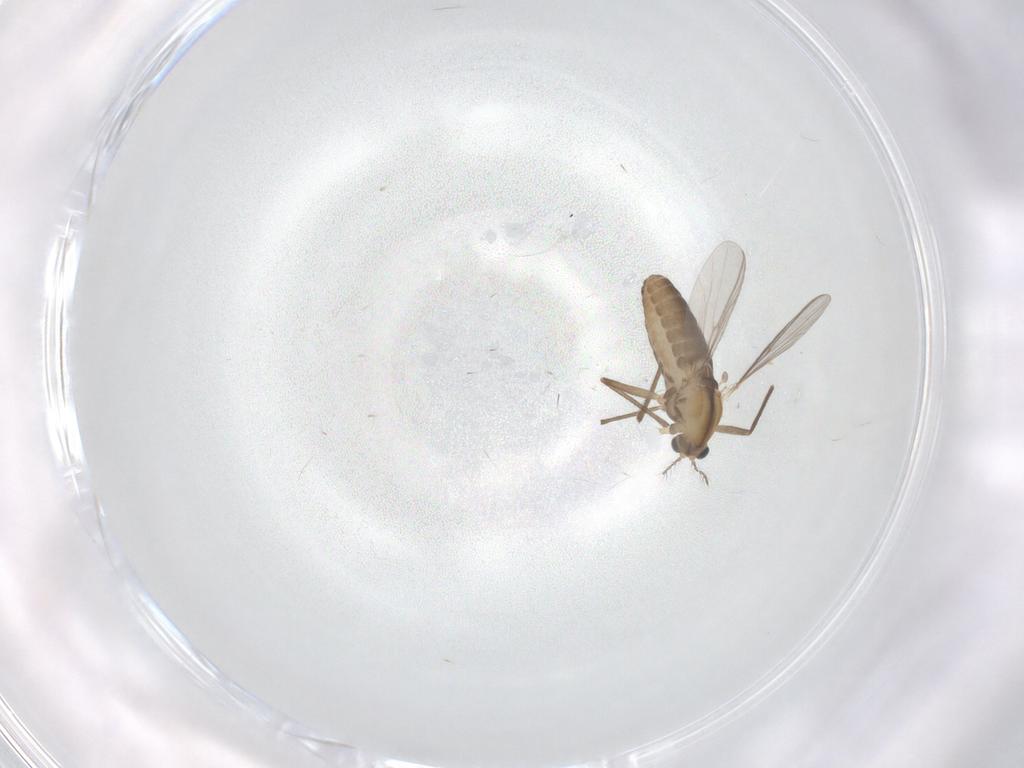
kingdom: Animalia
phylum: Arthropoda
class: Insecta
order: Diptera
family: Chironomidae
